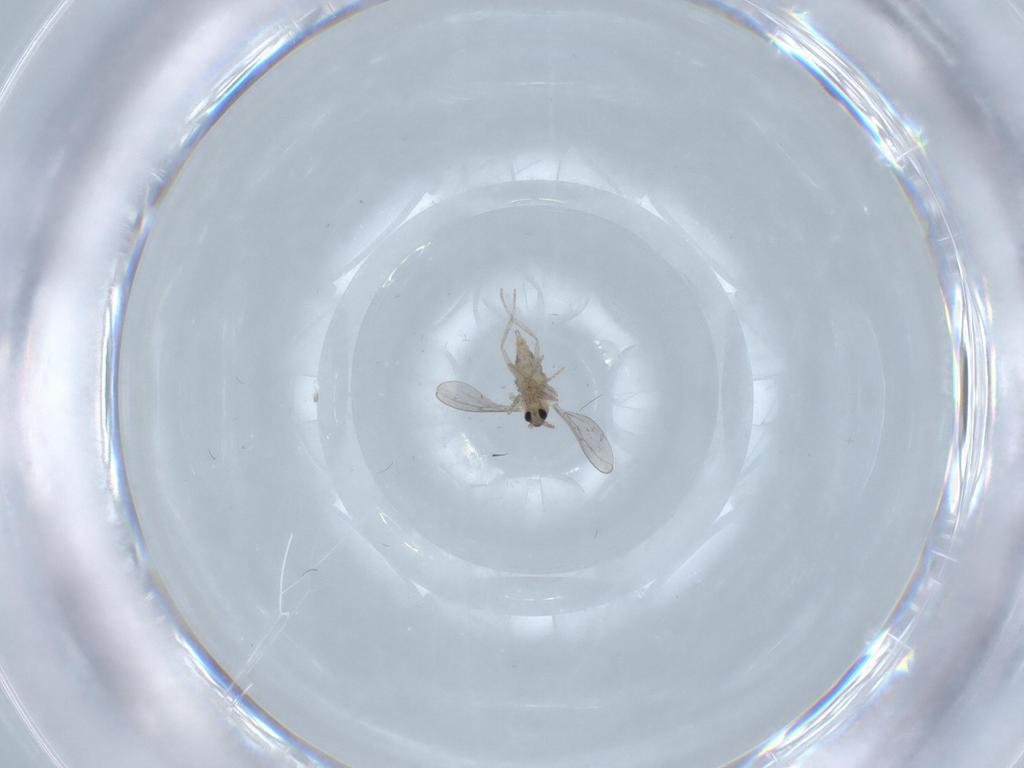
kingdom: Animalia
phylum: Arthropoda
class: Insecta
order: Diptera
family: Cecidomyiidae
